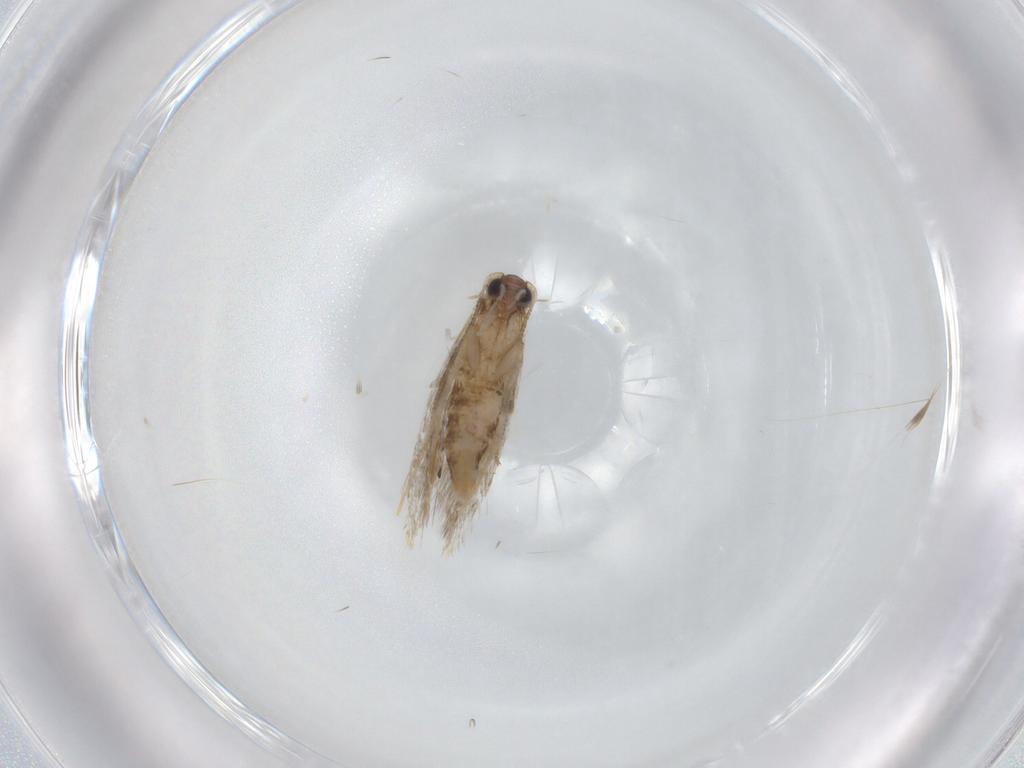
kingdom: Animalia
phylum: Arthropoda
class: Insecta
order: Lepidoptera
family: Tineidae
